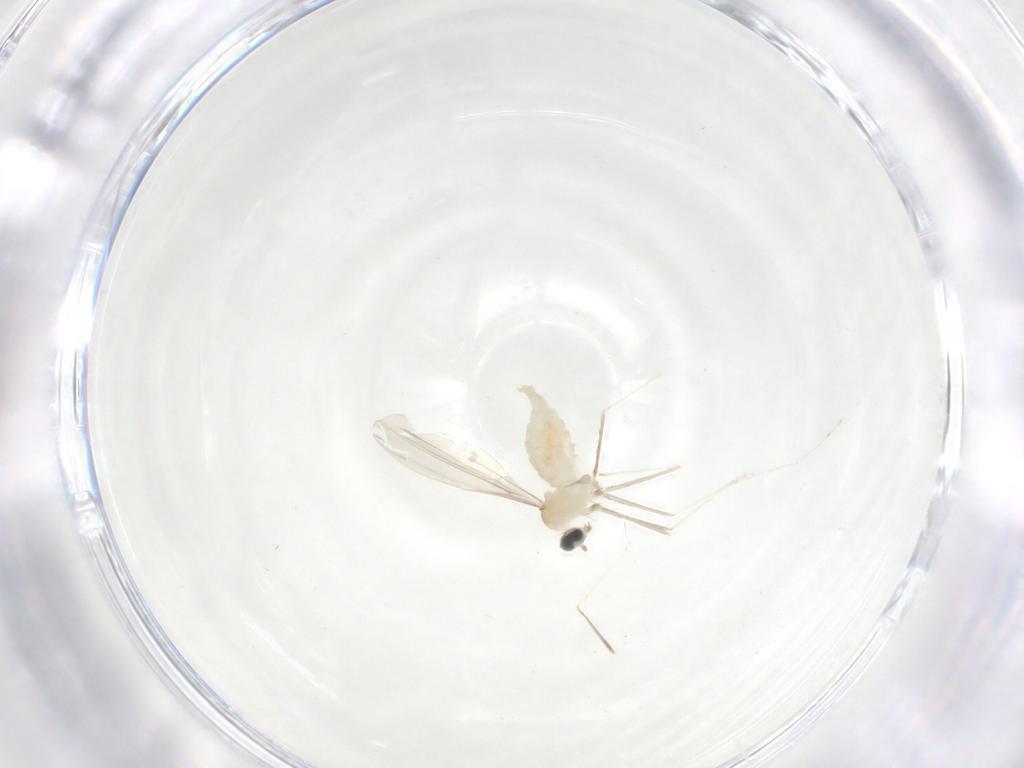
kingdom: Animalia
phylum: Arthropoda
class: Insecta
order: Diptera
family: Cecidomyiidae
